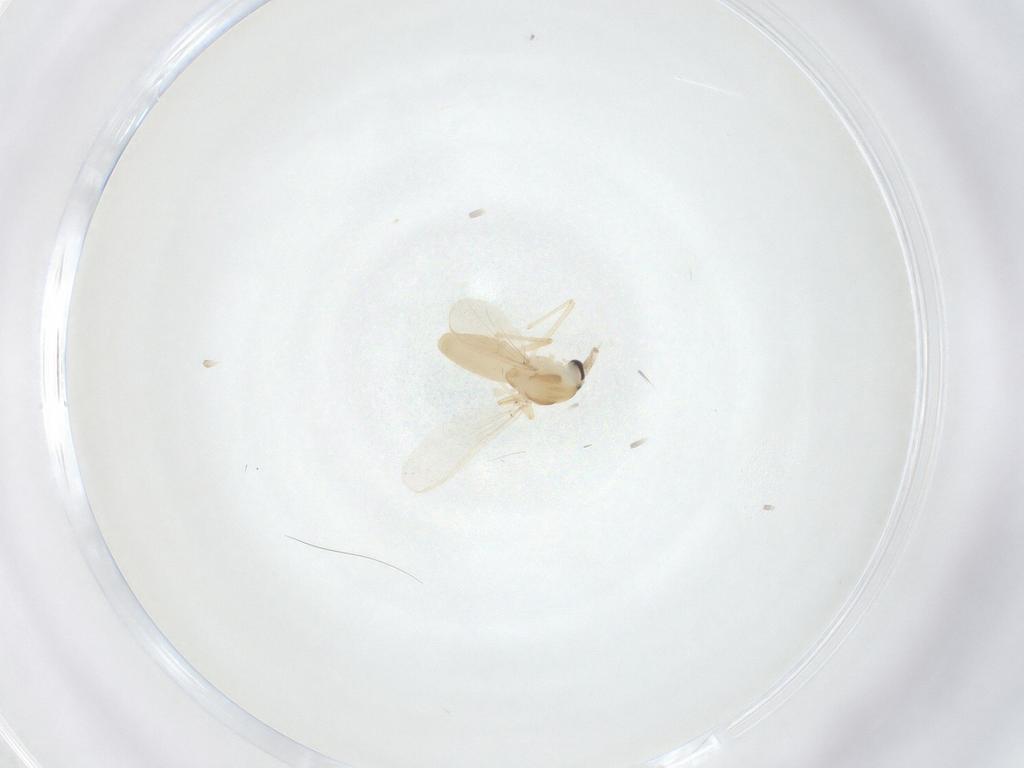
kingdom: Animalia
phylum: Arthropoda
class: Insecta
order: Diptera
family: Chironomidae
